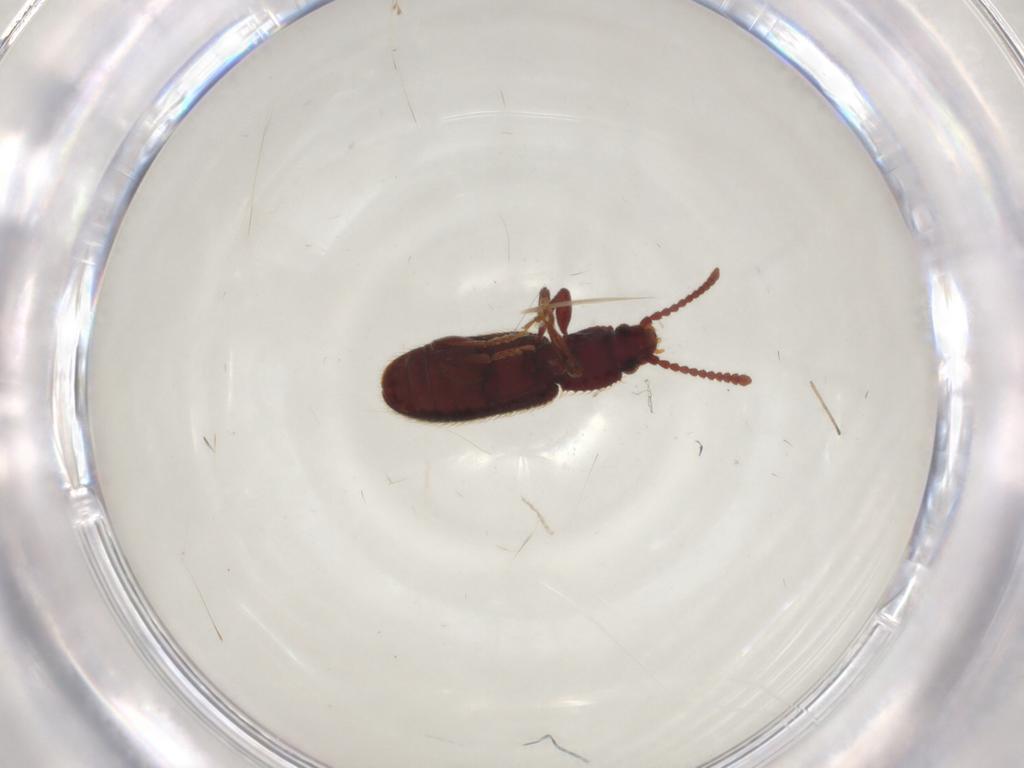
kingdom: Animalia
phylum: Arthropoda
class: Insecta
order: Coleoptera
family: Silvanidae
